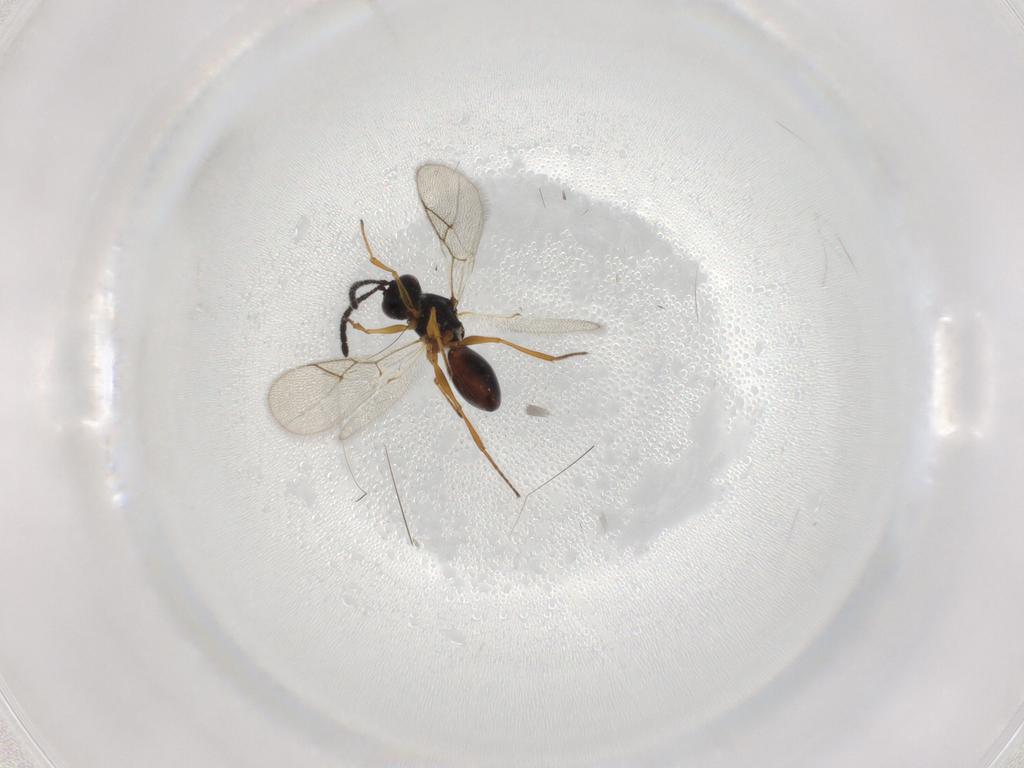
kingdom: Animalia
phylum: Arthropoda
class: Insecta
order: Hymenoptera
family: Figitidae
